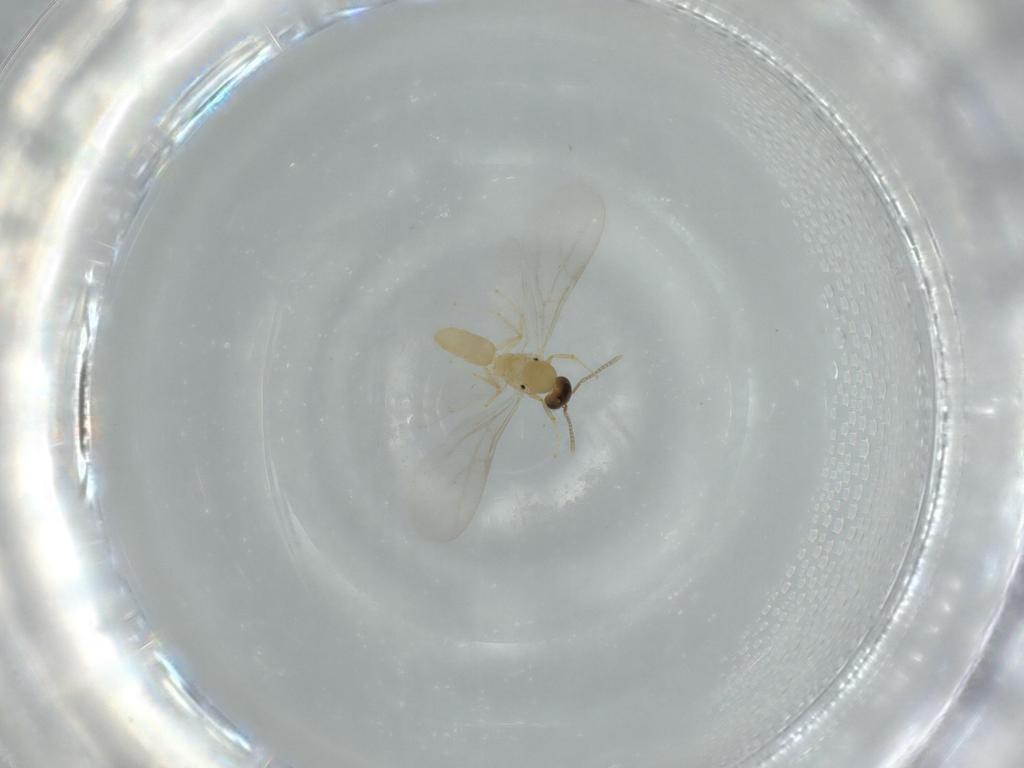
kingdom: Animalia
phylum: Arthropoda
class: Insecta
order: Hymenoptera
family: Formicidae
